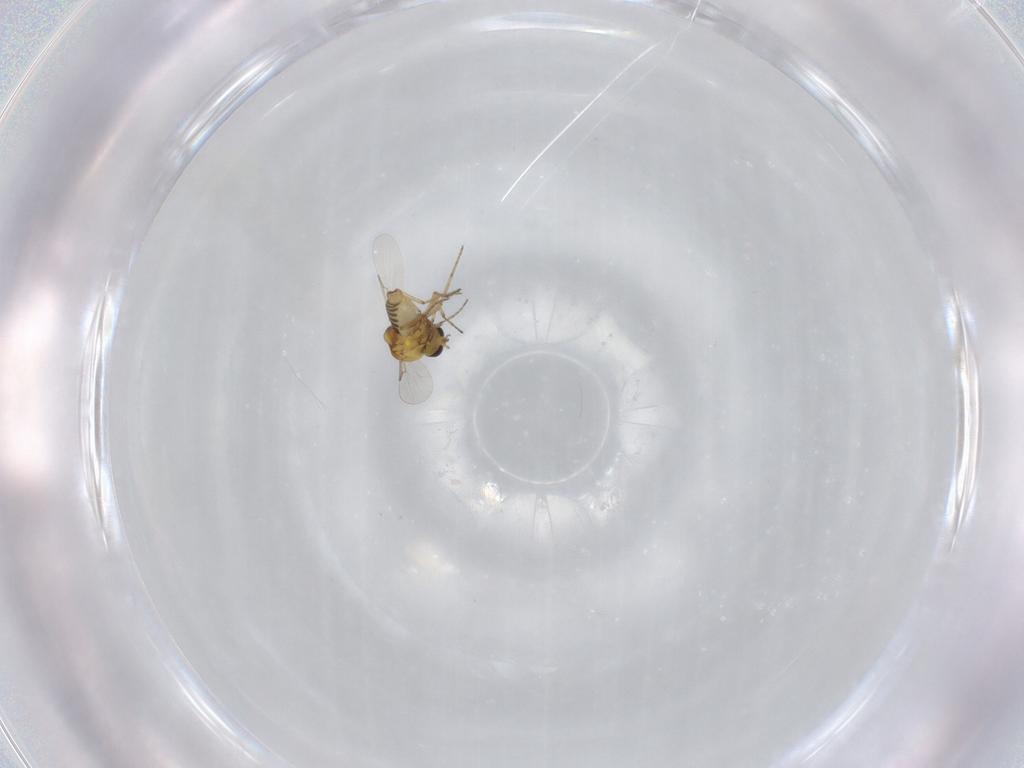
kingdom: Animalia
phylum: Arthropoda
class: Insecta
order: Diptera
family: Ceratopogonidae
